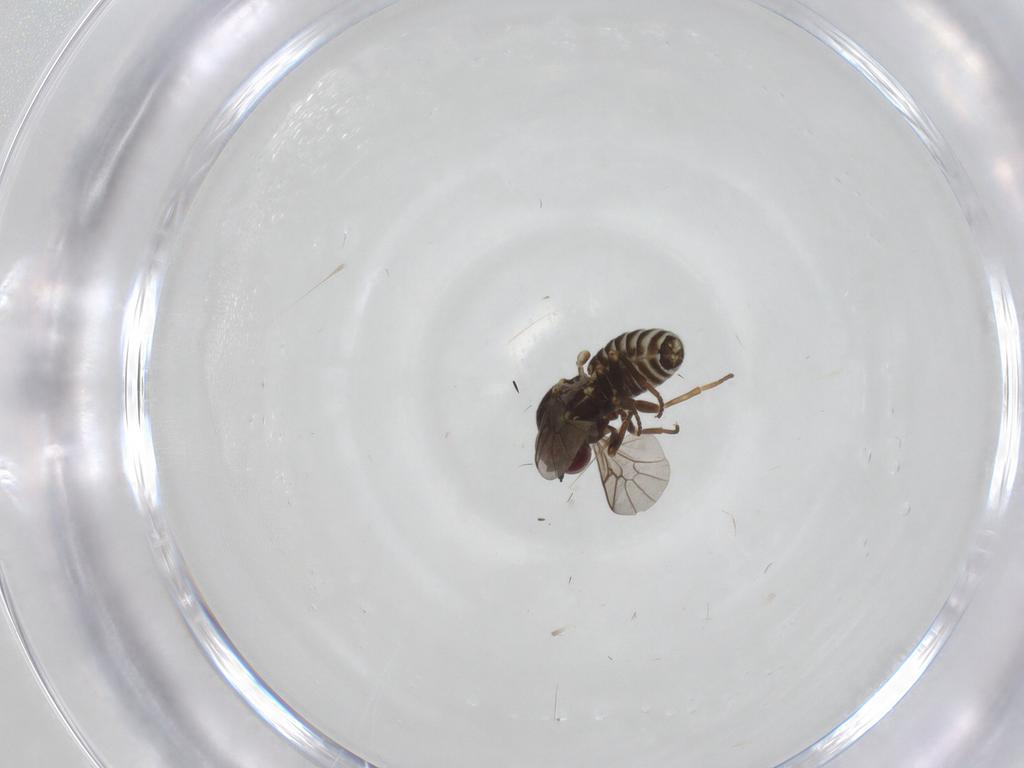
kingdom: Animalia
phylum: Arthropoda
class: Insecta
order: Diptera
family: Bombyliidae
